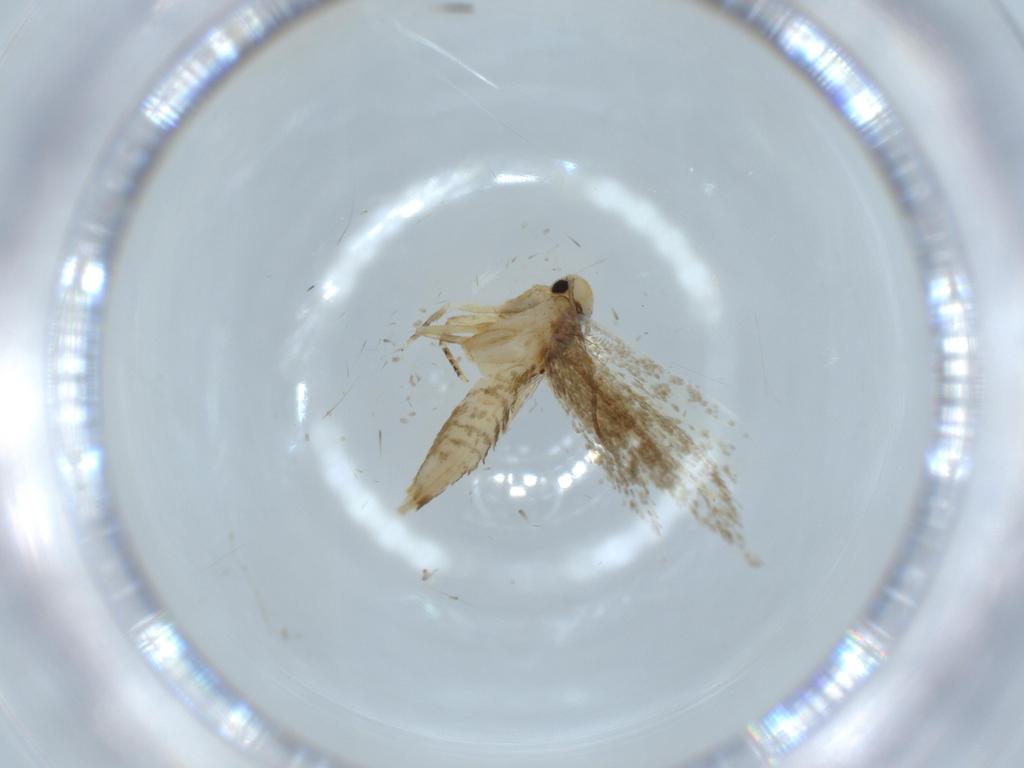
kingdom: Animalia
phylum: Arthropoda
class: Insecta
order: Lepidoptera
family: Tineidae
